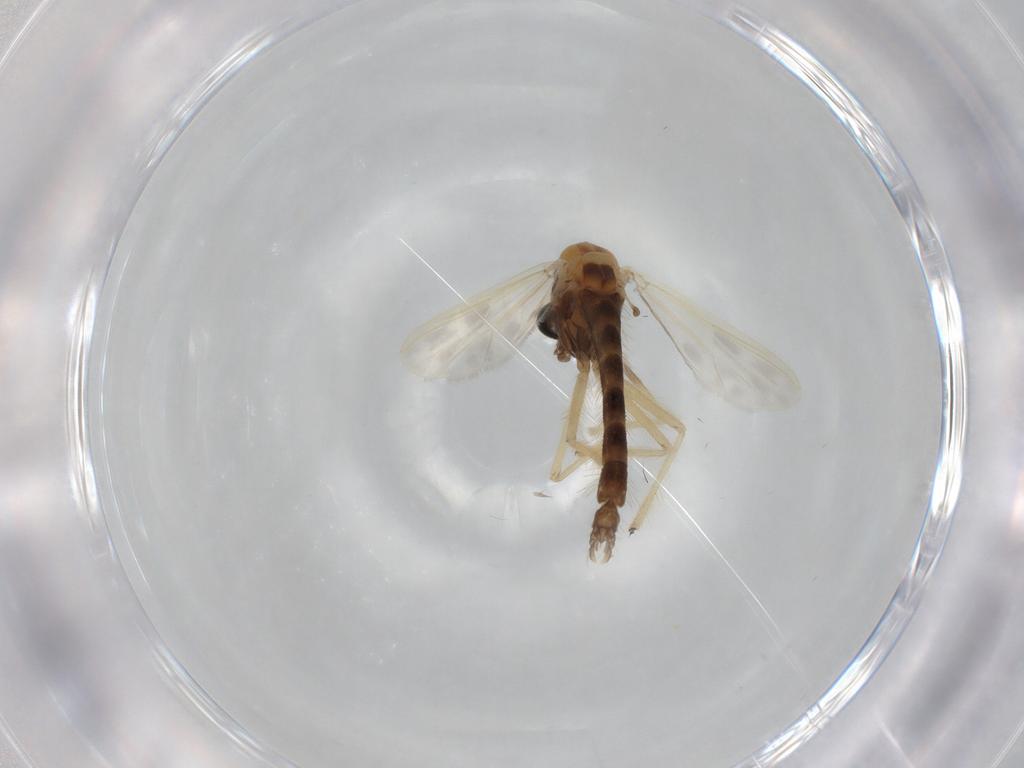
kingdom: Animalia
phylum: Arthropoda
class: Insecta
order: Diptera
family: Chironomidae
